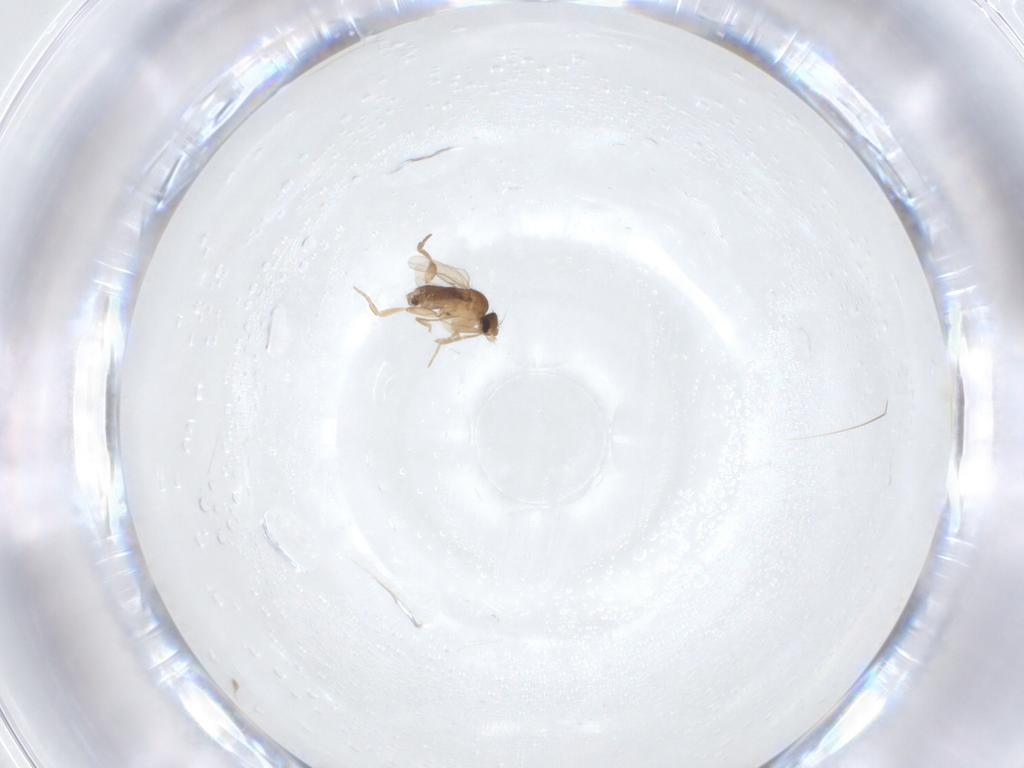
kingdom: Animalia
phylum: Arthropoda
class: Insecta
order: Diptera
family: Phoridae
